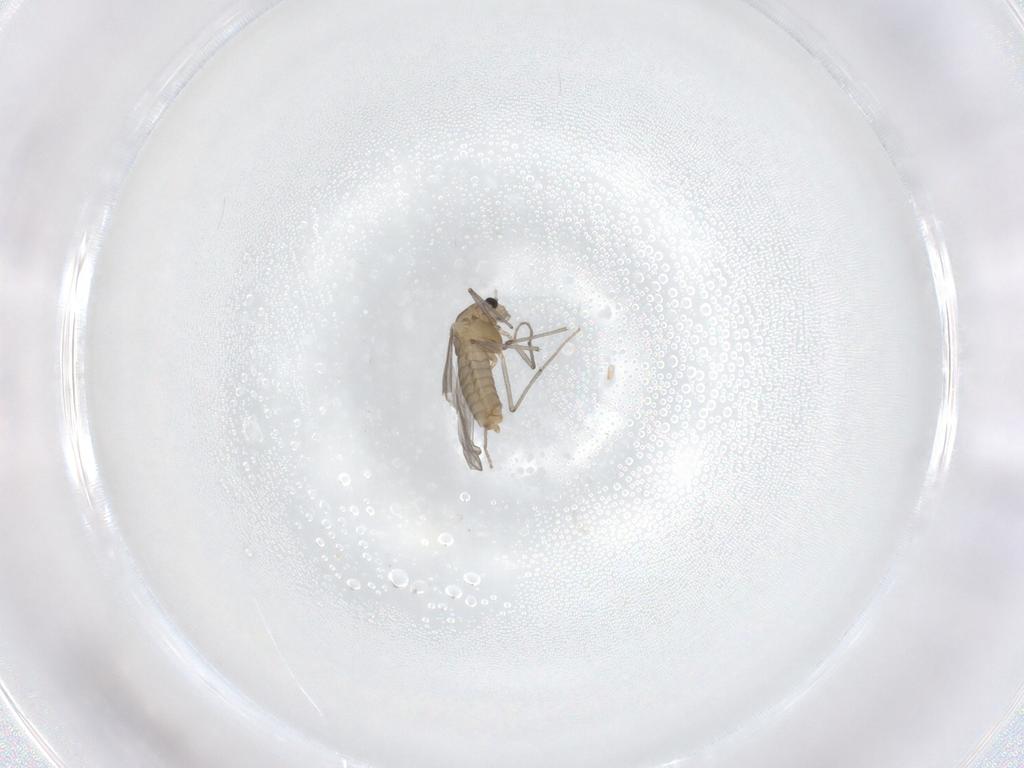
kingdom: Animalia
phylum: Arthropoda
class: Insecta
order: Diptera
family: Chironomidae
